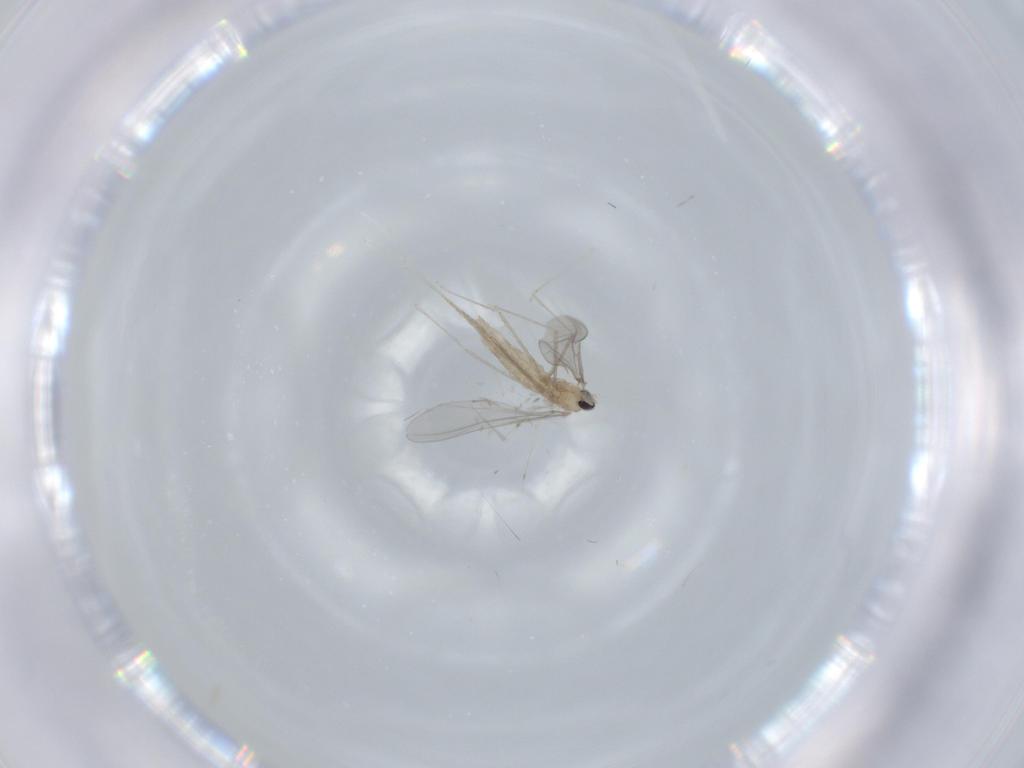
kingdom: Animalia
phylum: Arthropoda
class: Insecta
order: Diptera
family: Cecidomyiidae
